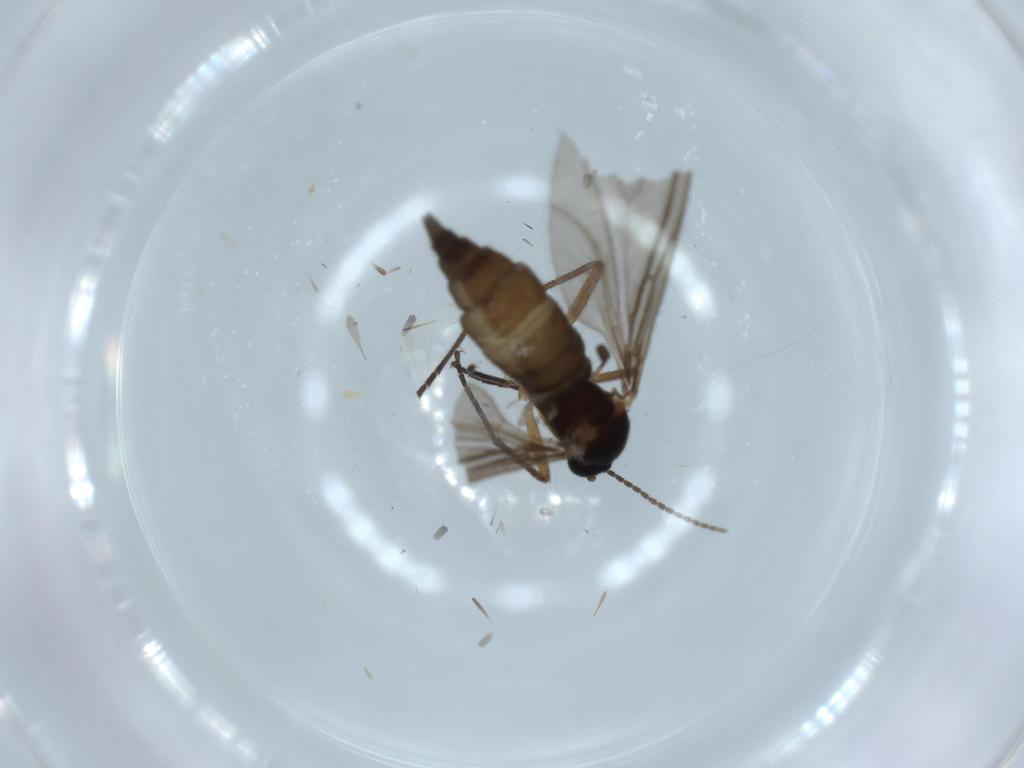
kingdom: Animalia
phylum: Arthropoda
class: Insecta
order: Diptera
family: Sciaridae
